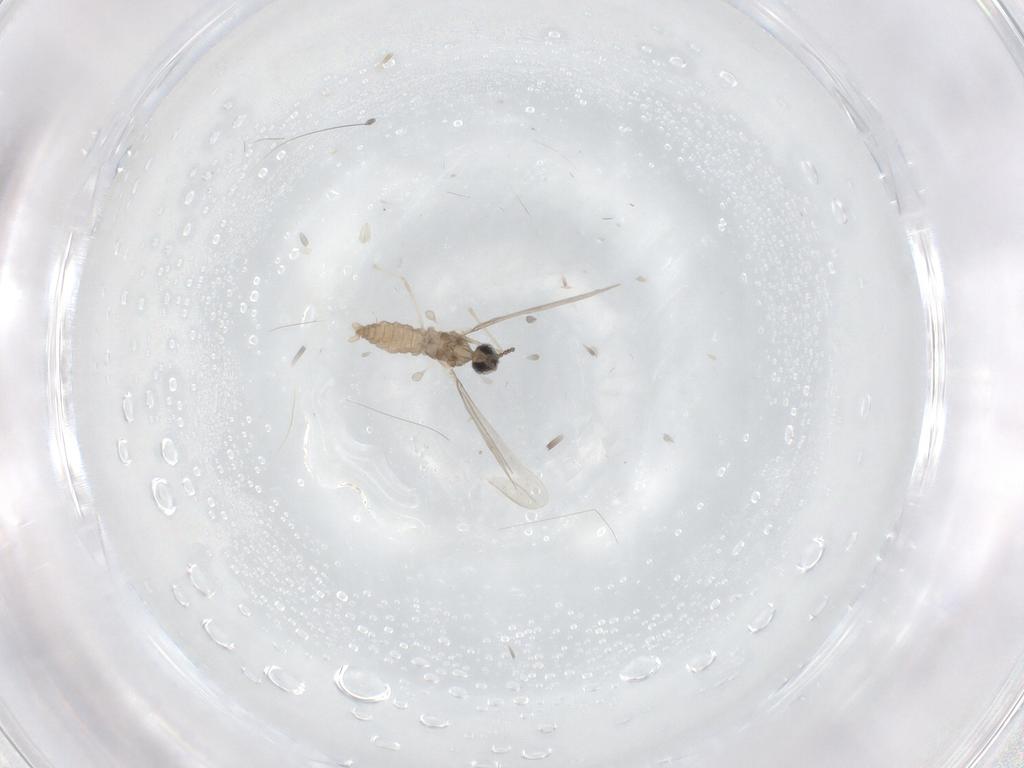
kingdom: Animalia
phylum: Arthropoda
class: Insecta
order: Diptera
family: Cecidomyiidae
